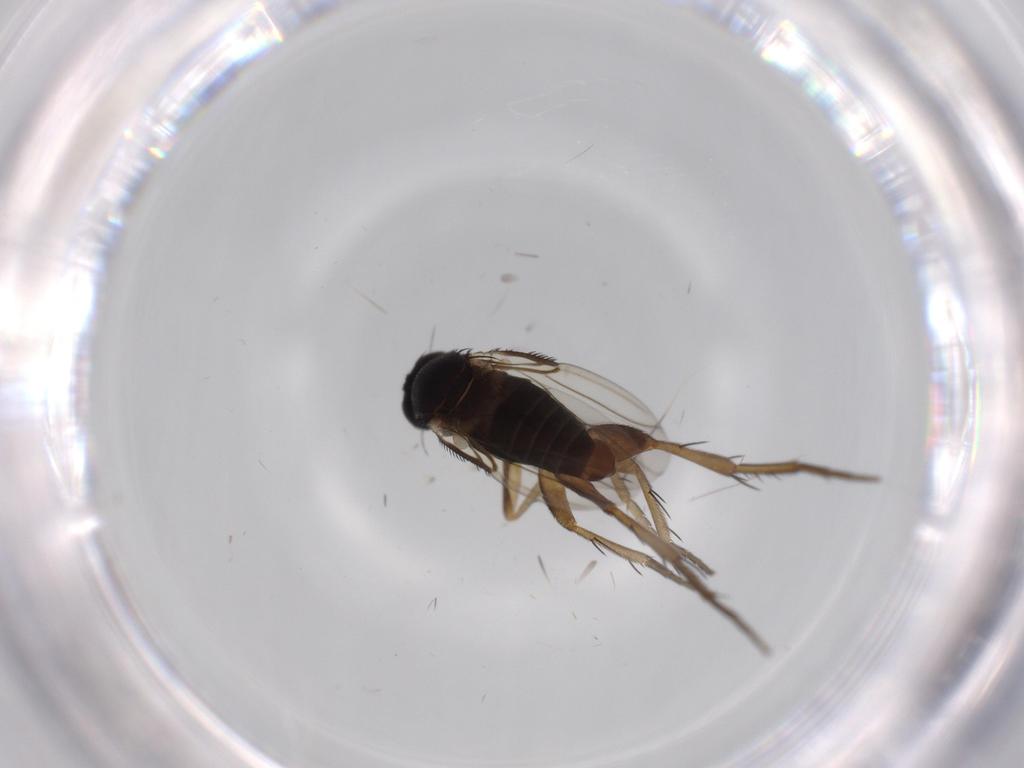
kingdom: Animalia
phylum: Arthropoda
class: Insecta
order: Diptera
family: Phoridae
